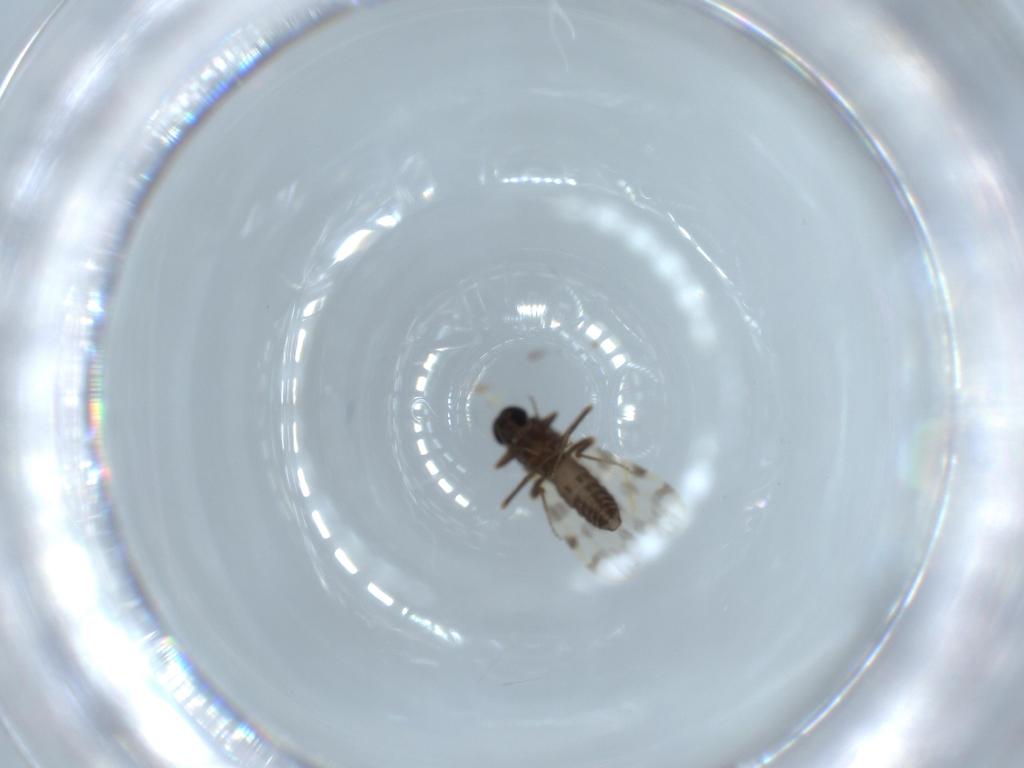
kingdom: Animalia
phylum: Arthropoda
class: Insecta
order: Diptera
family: Ceratopogonidae
